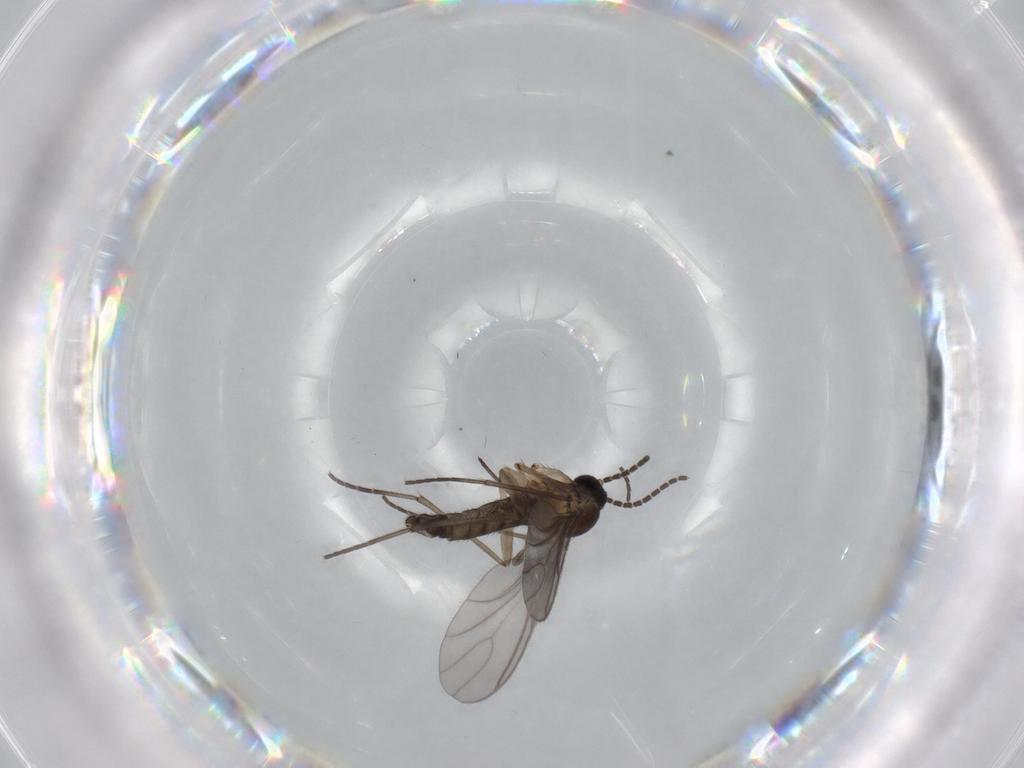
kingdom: Animalia
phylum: Arthropoda
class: Insecta
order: Diptera
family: Sciaridae
